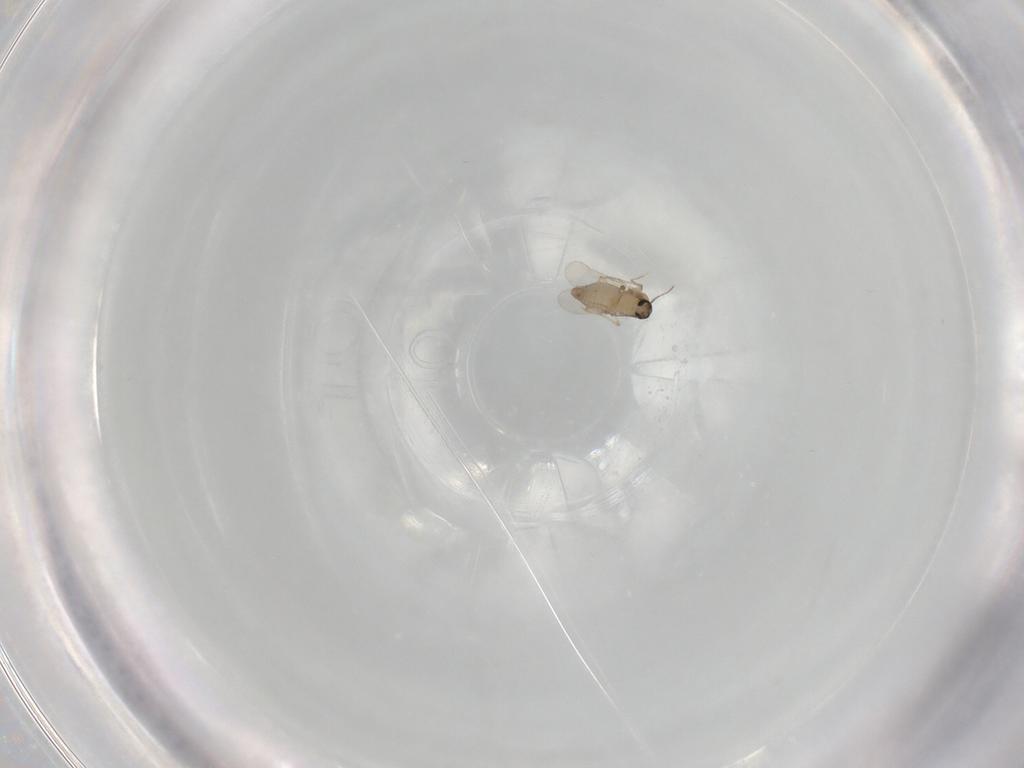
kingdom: Animalia
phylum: Arthropoda
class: Insecta
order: Diptera
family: Ceratopogonidae
